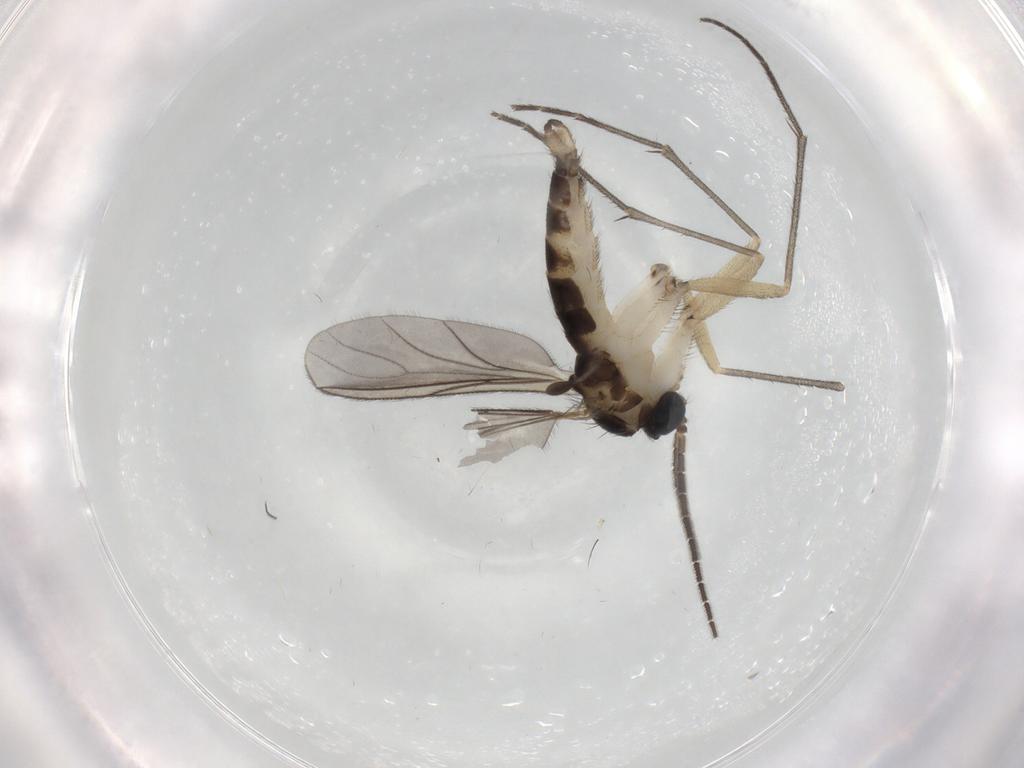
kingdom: Animalia
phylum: Arthropoda
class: Insecta
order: Diptera
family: Sciaridae
